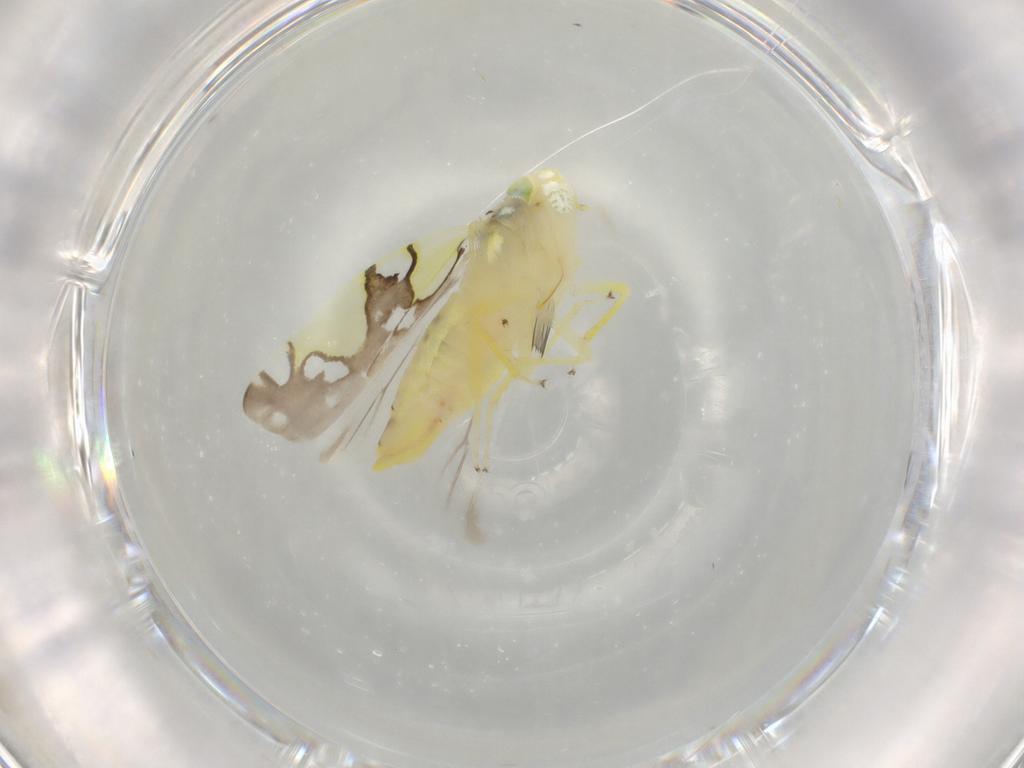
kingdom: Animalia
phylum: Arthropoda
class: Insecta
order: Hemiptera
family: Cicadellidae
